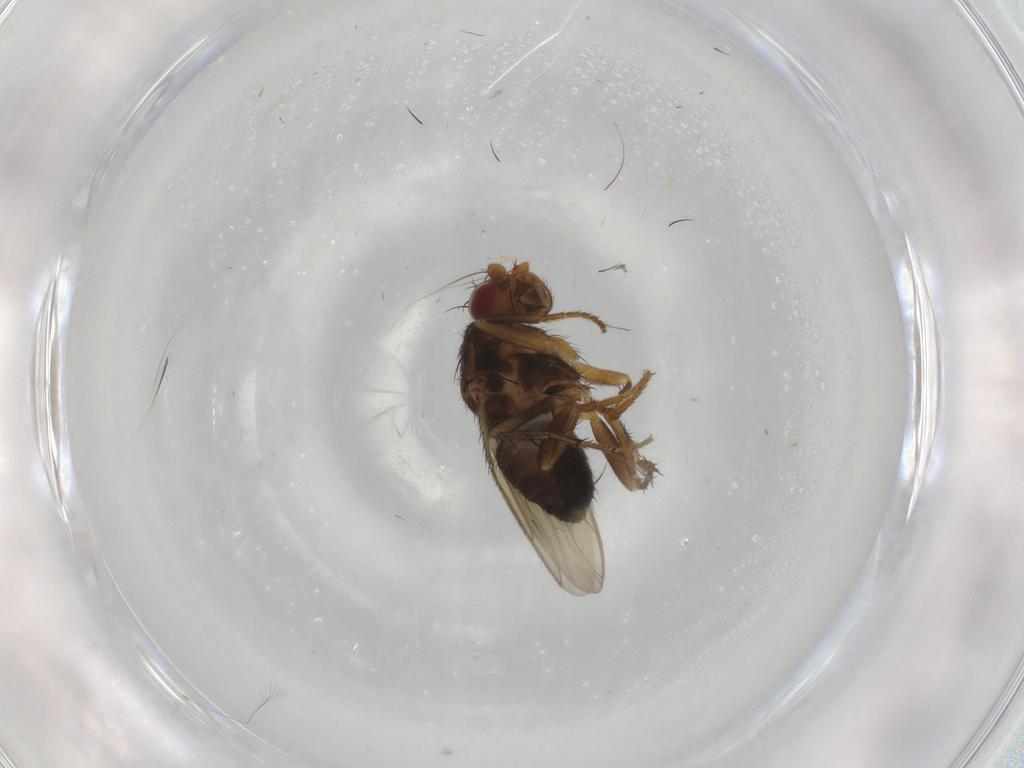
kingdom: Animalia
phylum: Arthropoda
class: Insecta
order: Diptera
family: Sphaeroceridae
